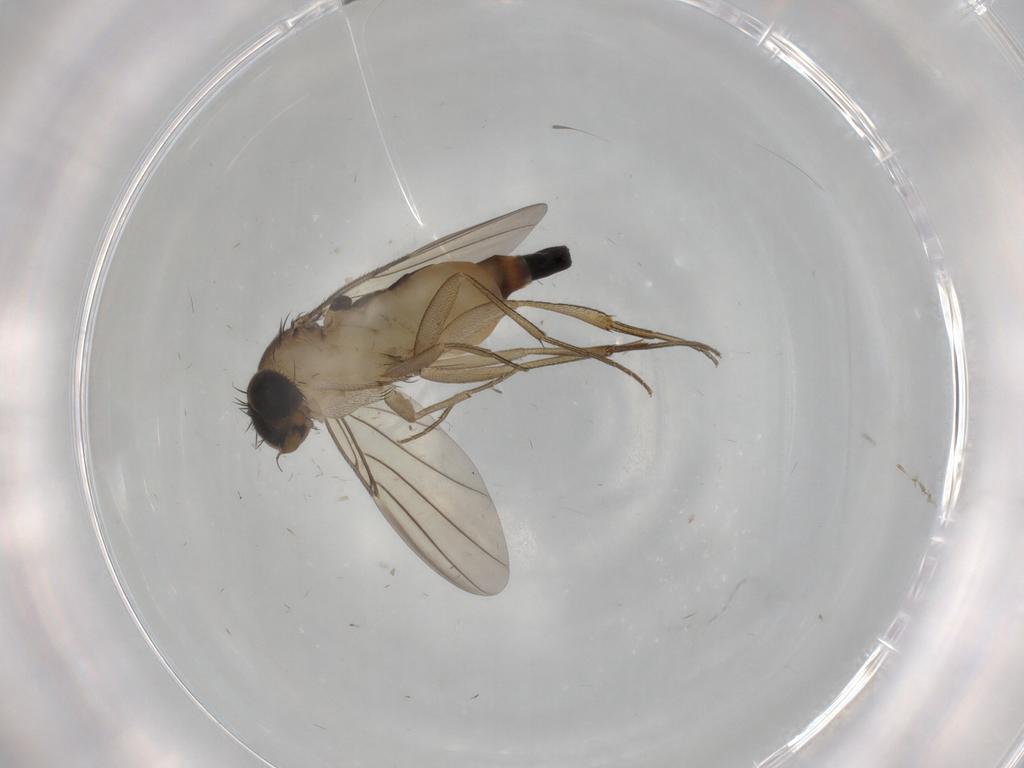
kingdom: Animalia
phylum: Arthropoda
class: Insecta
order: Diptera
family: Phoridae
